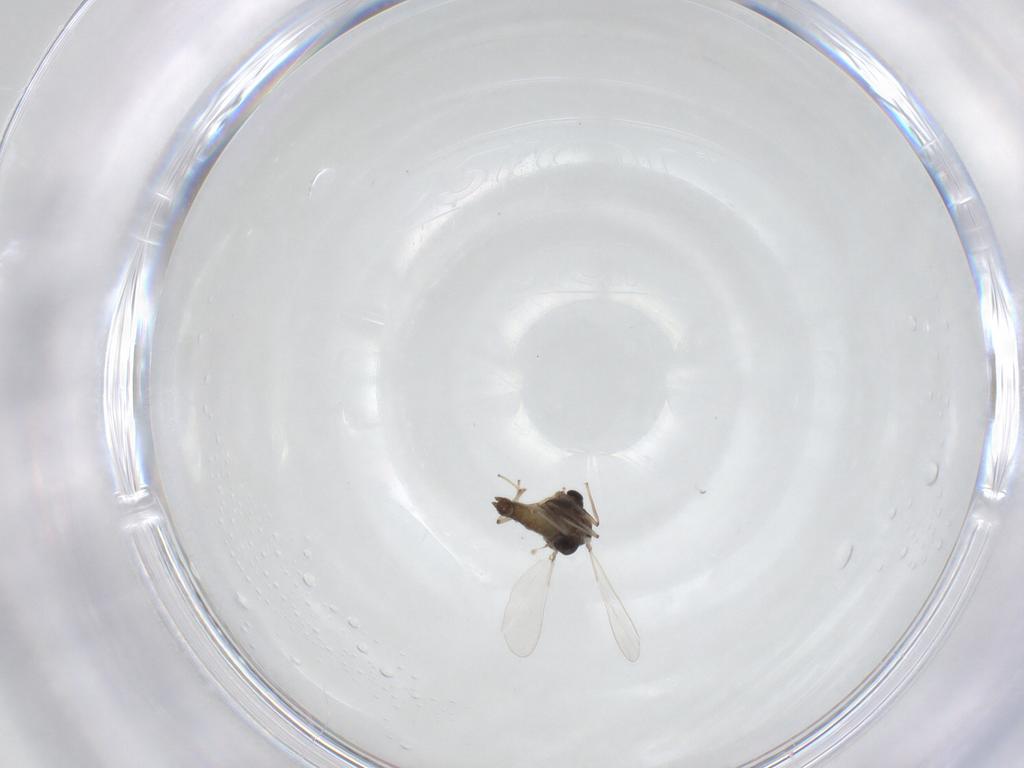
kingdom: Animalia
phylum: Arthropoda
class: Insecta
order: Diptera
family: Chironomidae
